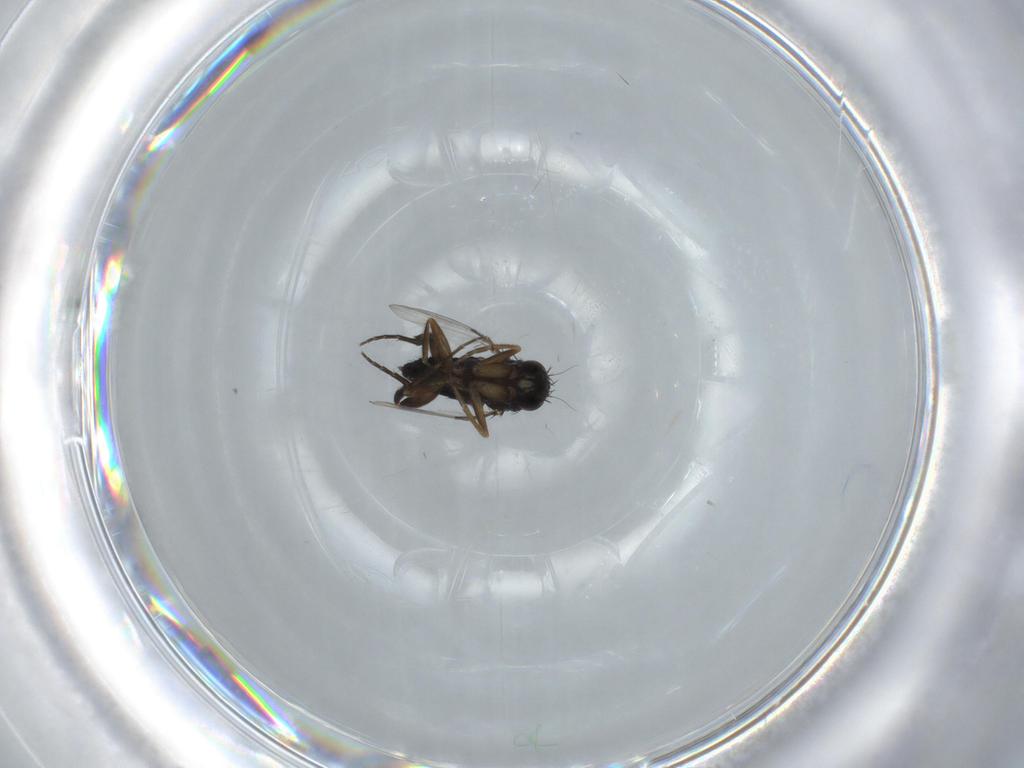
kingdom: Animalia
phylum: Arthropoda
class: Insecta
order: Diptera
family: Phoridae
